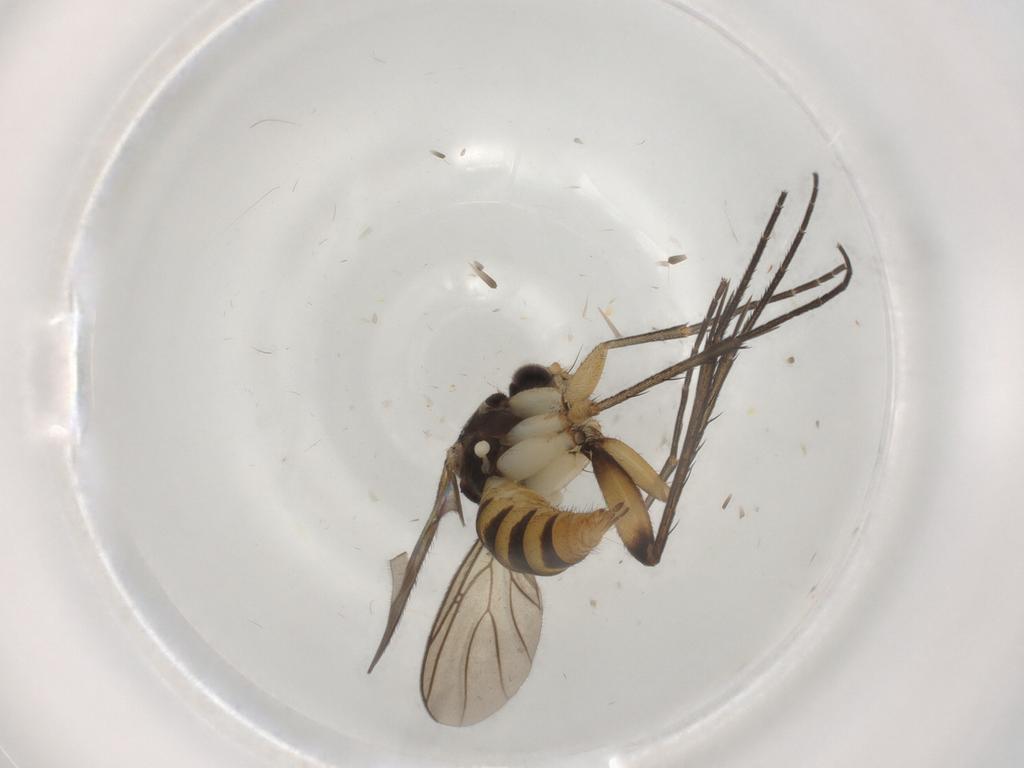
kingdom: Animalia
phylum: Arthropoda
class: Insecta
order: Diptera
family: Mycetophilidae
